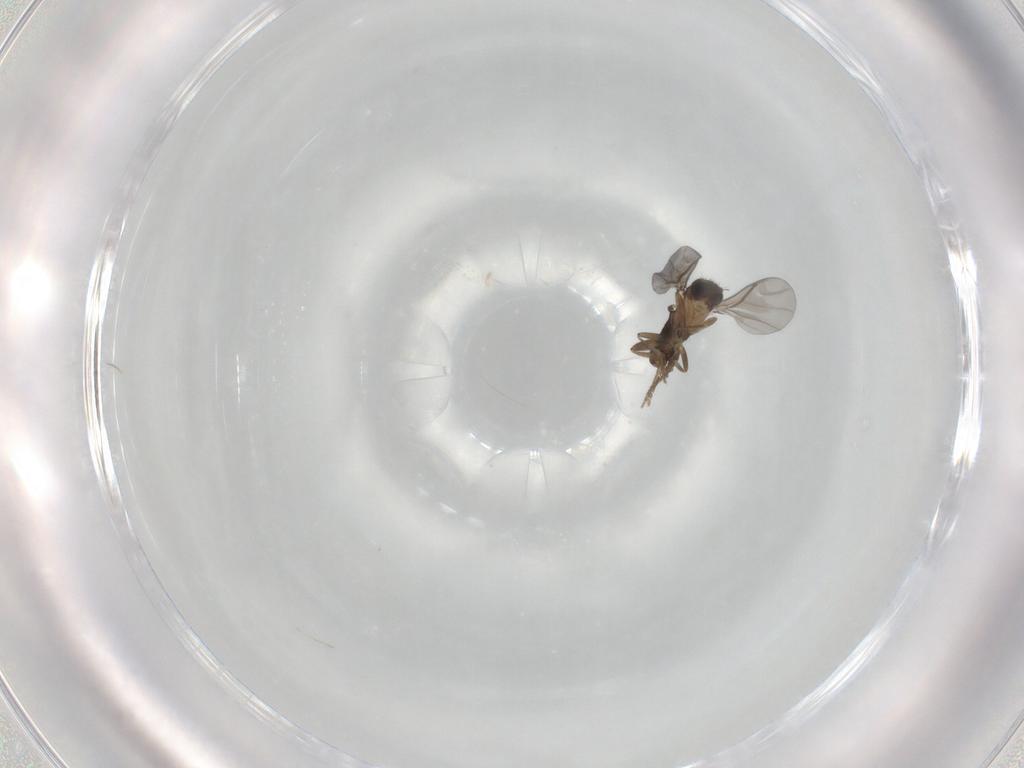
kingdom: Animalia
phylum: Arthropoda
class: Insecta
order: Diptera
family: Phoridae
